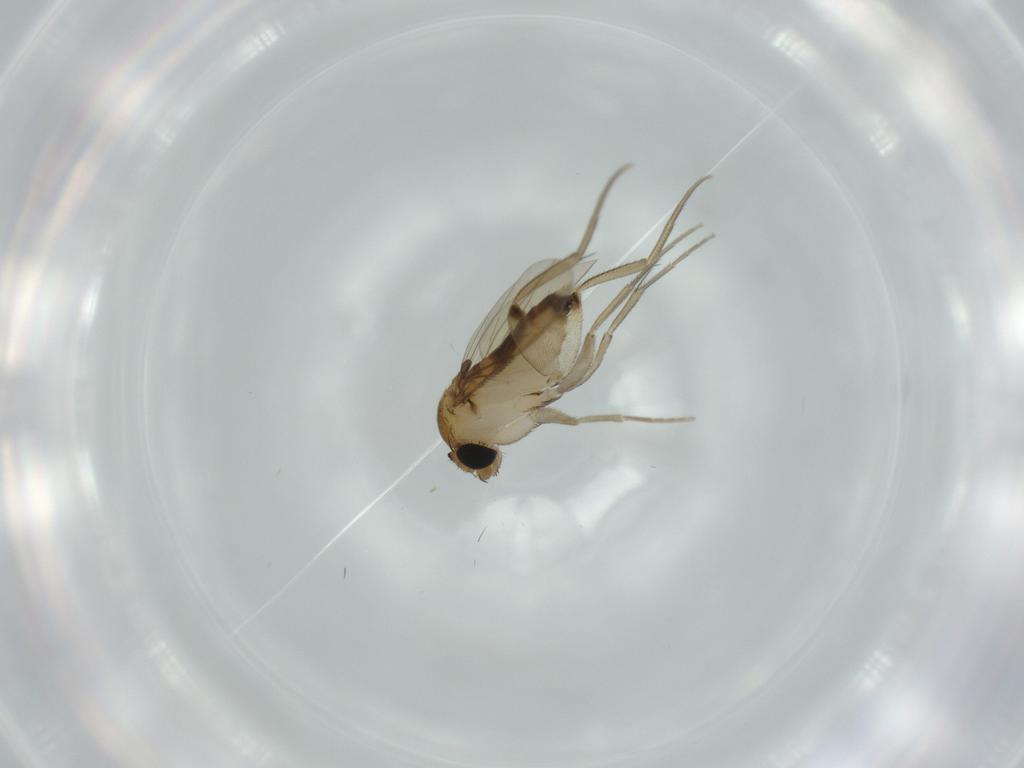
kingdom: Animalia
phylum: Arthropoda
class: Insecta
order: Diptera
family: Phoridae
